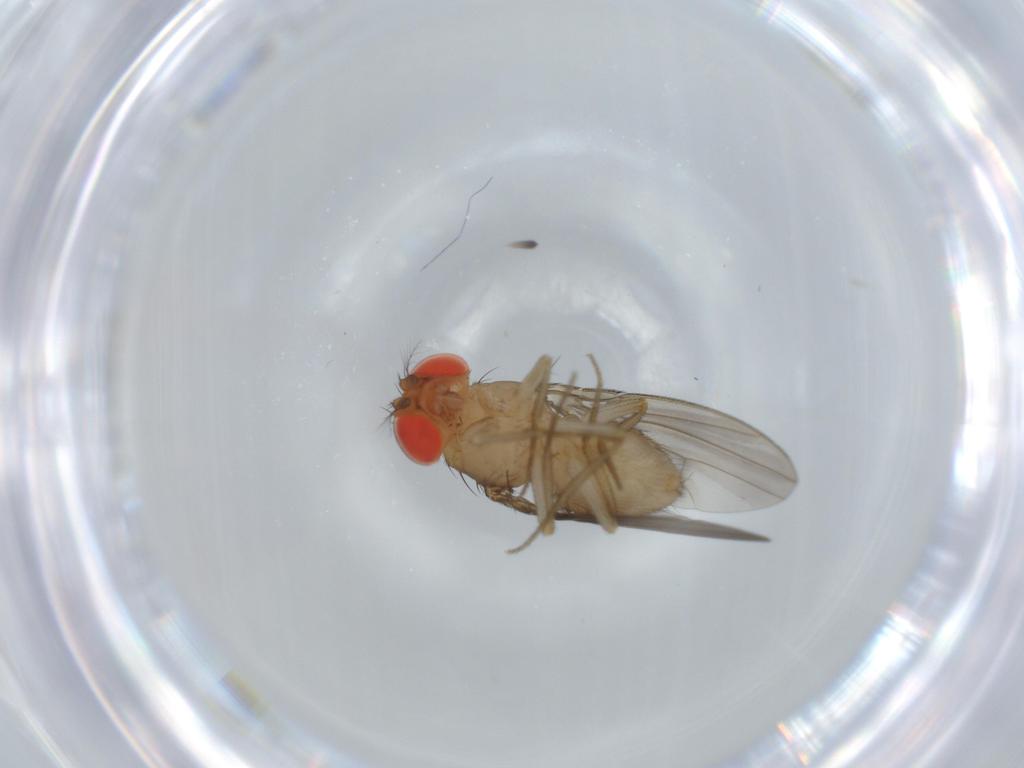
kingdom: Animalia
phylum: Arthropoda
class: Insecta
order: Diptera
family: Drosophilidae
